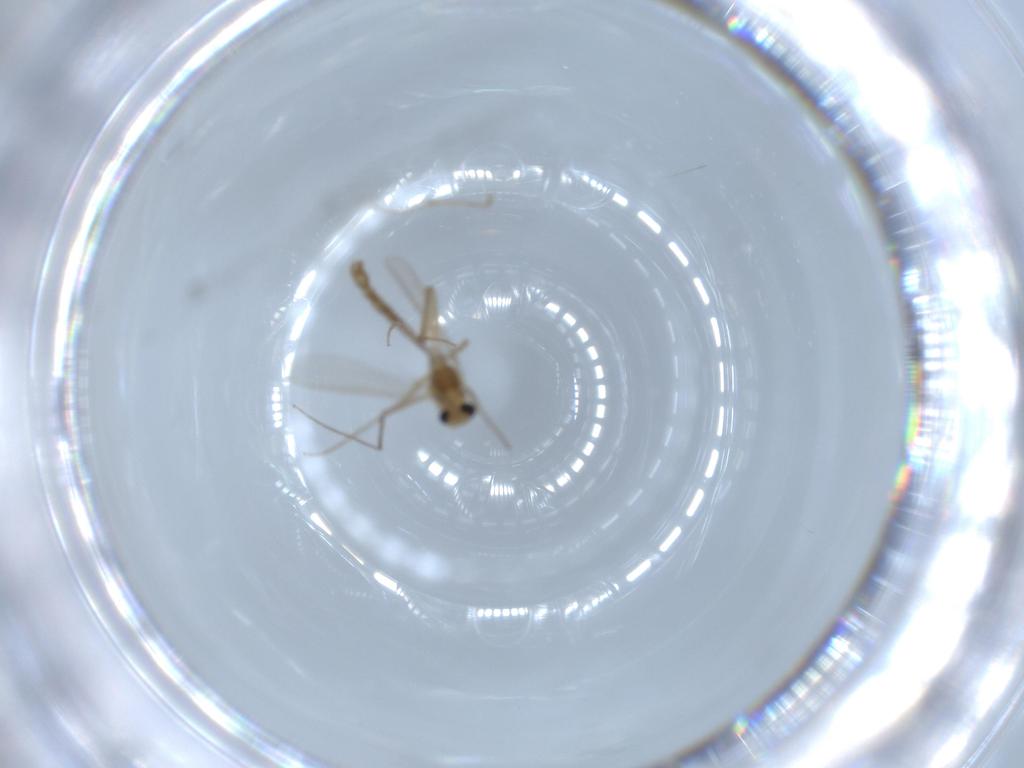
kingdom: Animalia
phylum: Arthropoda
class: Insecta
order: Diptera
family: Chironomidae
